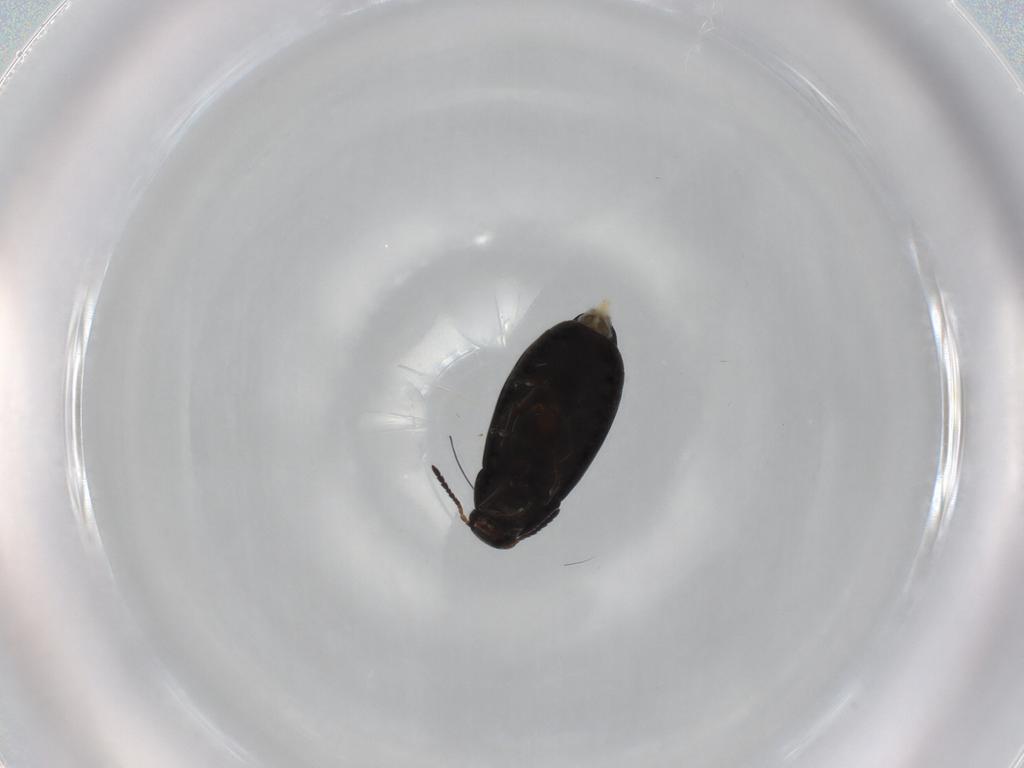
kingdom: Animalia
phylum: Arthropoda
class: Insecta
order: Coleoptera
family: Scraptiidae
